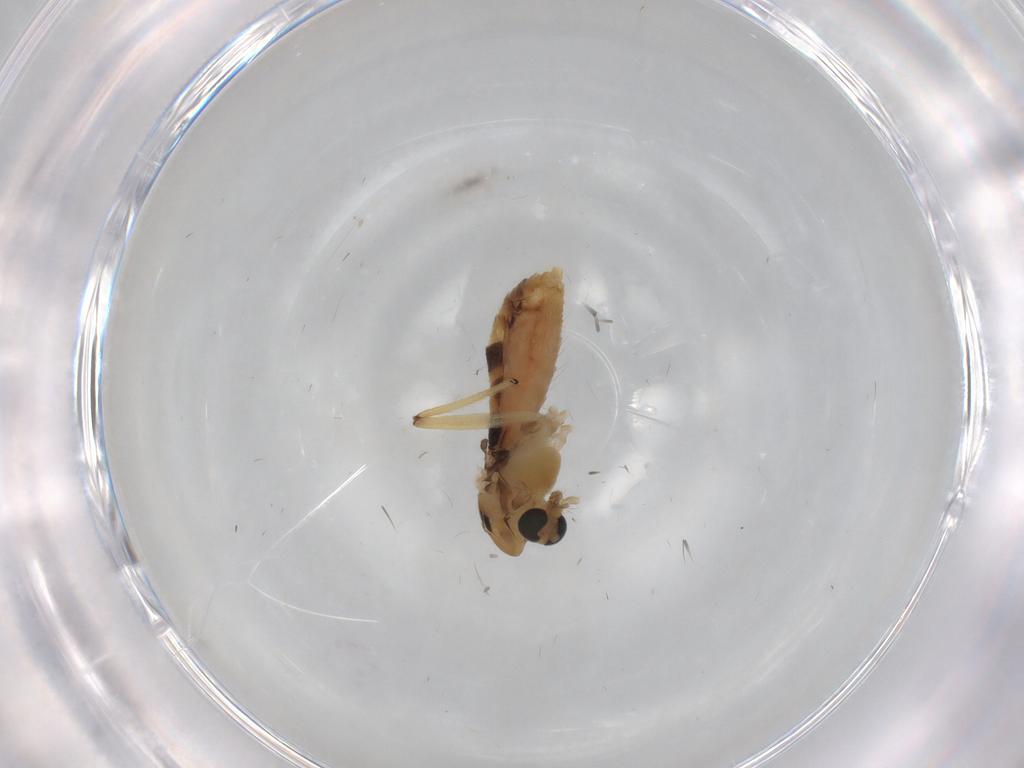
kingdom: Animalia
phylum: Arthropoda
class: Insecta
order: Diptera
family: Chironomidae
